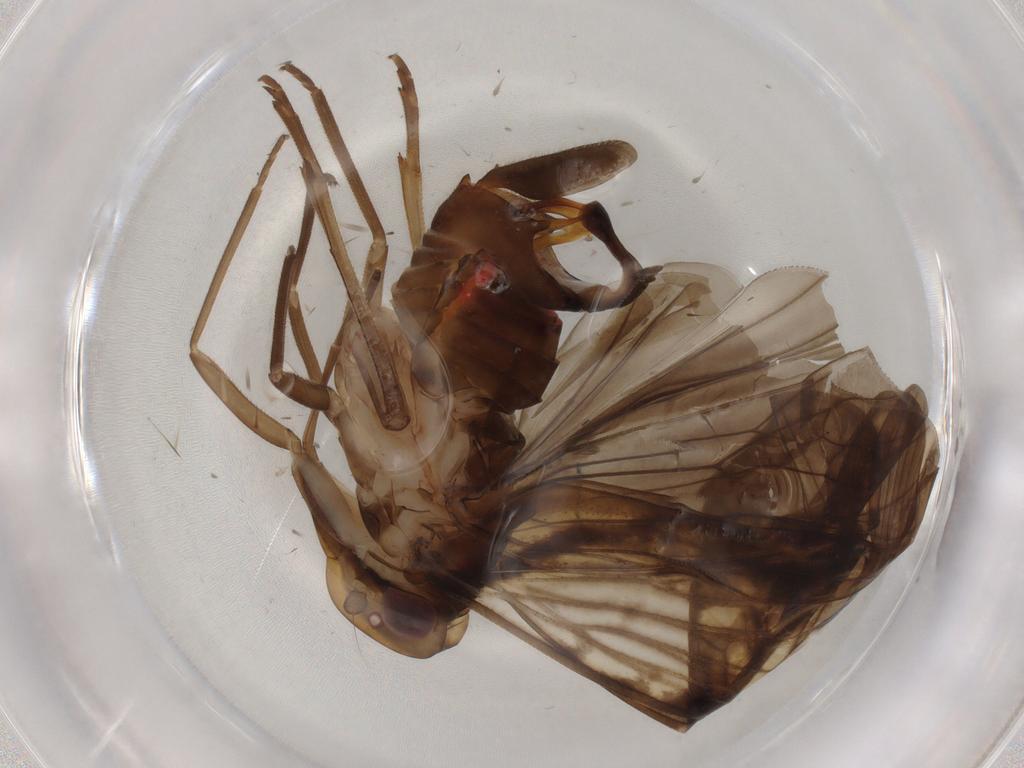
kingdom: Animalia
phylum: Arthropoda
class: Insecta
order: Hemiptera
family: Cixiidae
